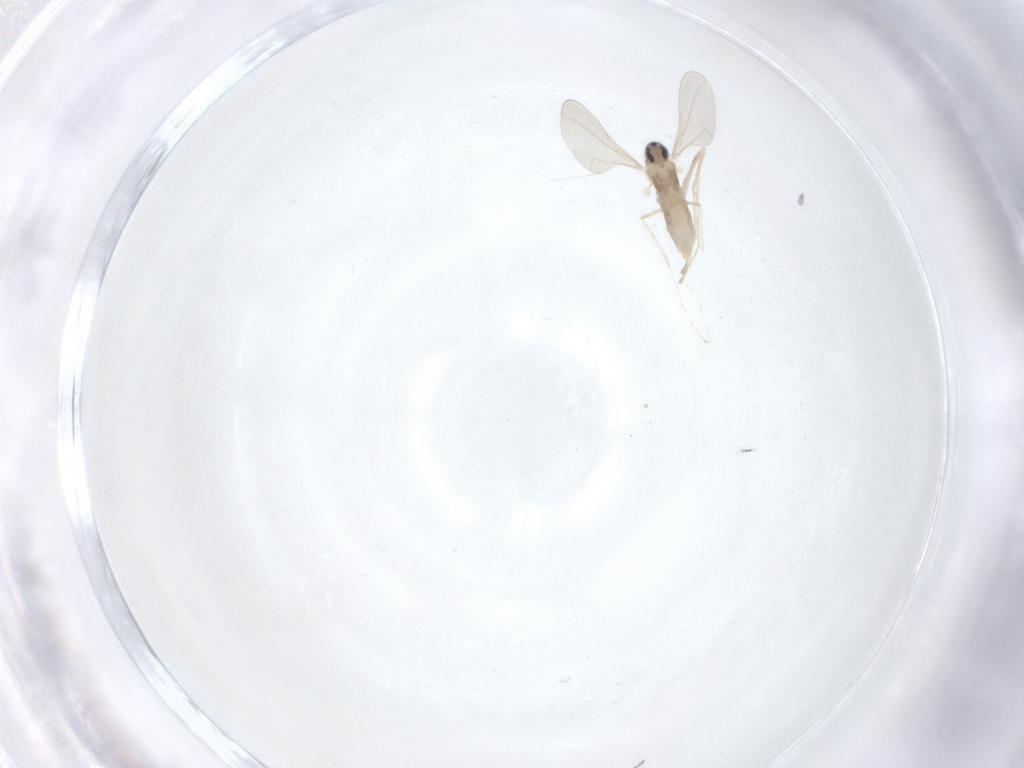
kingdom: Animalia
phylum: Arthropoda
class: Insecta
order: Diptera
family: Cecidomyiidae
